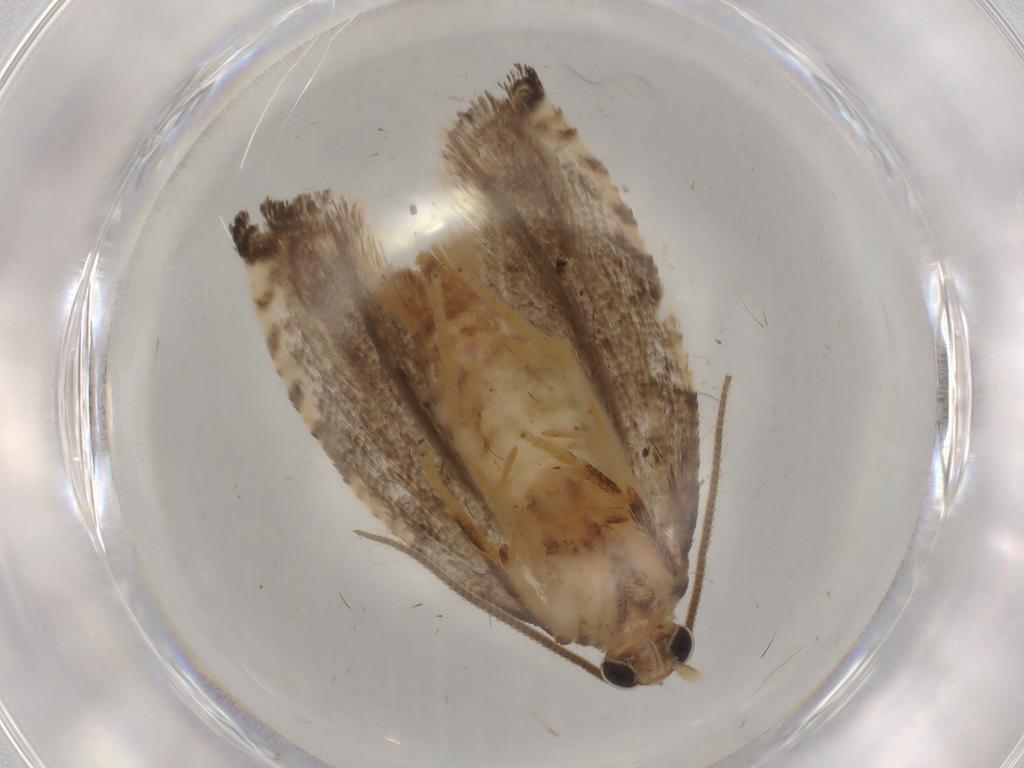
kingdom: Animalia
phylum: Arthropoda
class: Insecta
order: Lepidoptera
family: Tortricidae
